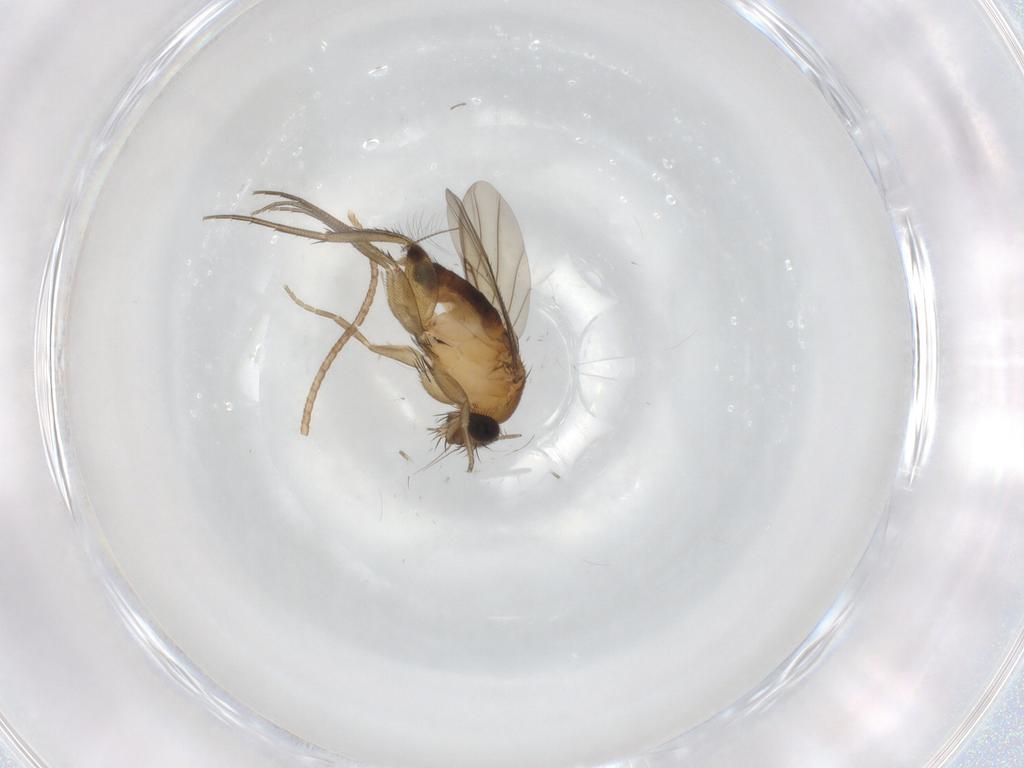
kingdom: Animalia
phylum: Arthropoda
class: Insecta
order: Diptera
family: Phoridae
